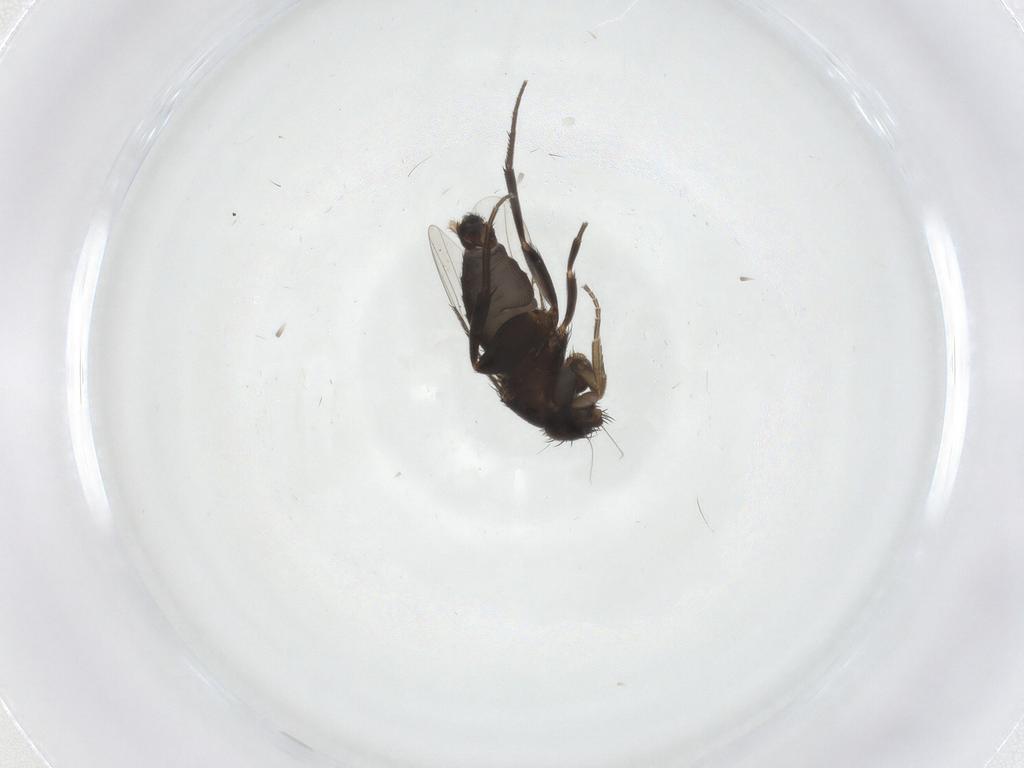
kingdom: Animalia
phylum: Arthropoda
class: Insecta
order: Diptera
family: Phoridae
